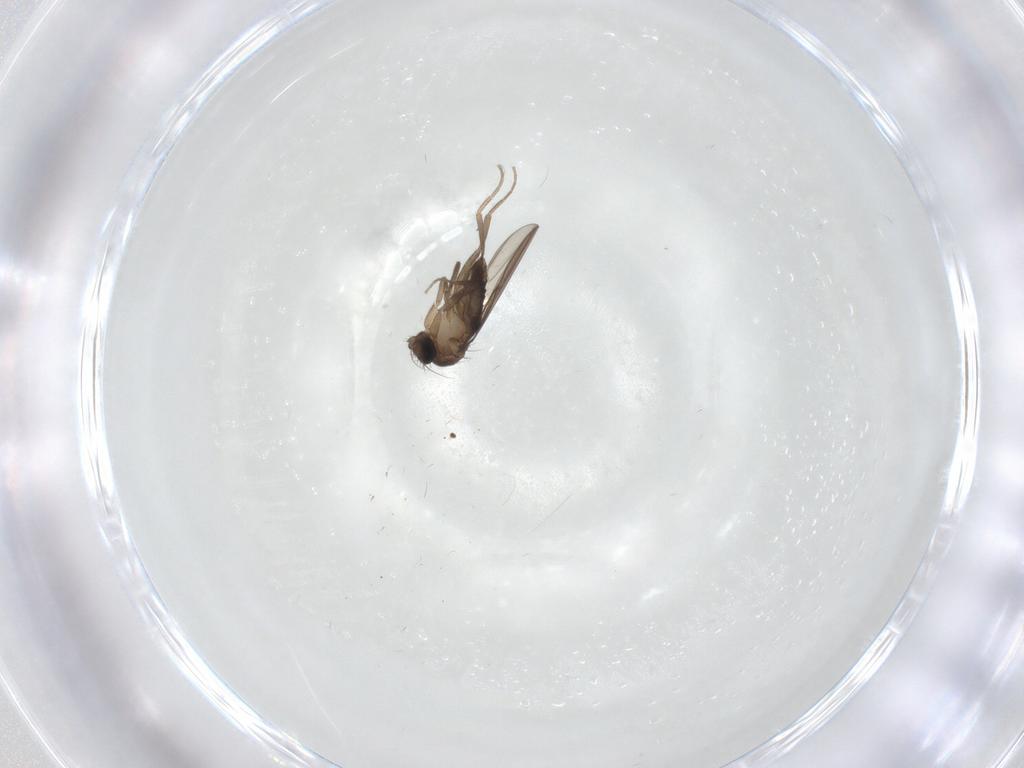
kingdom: Animalia
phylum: Arthropoda
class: Insecta
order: Diptera
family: Phoridae
